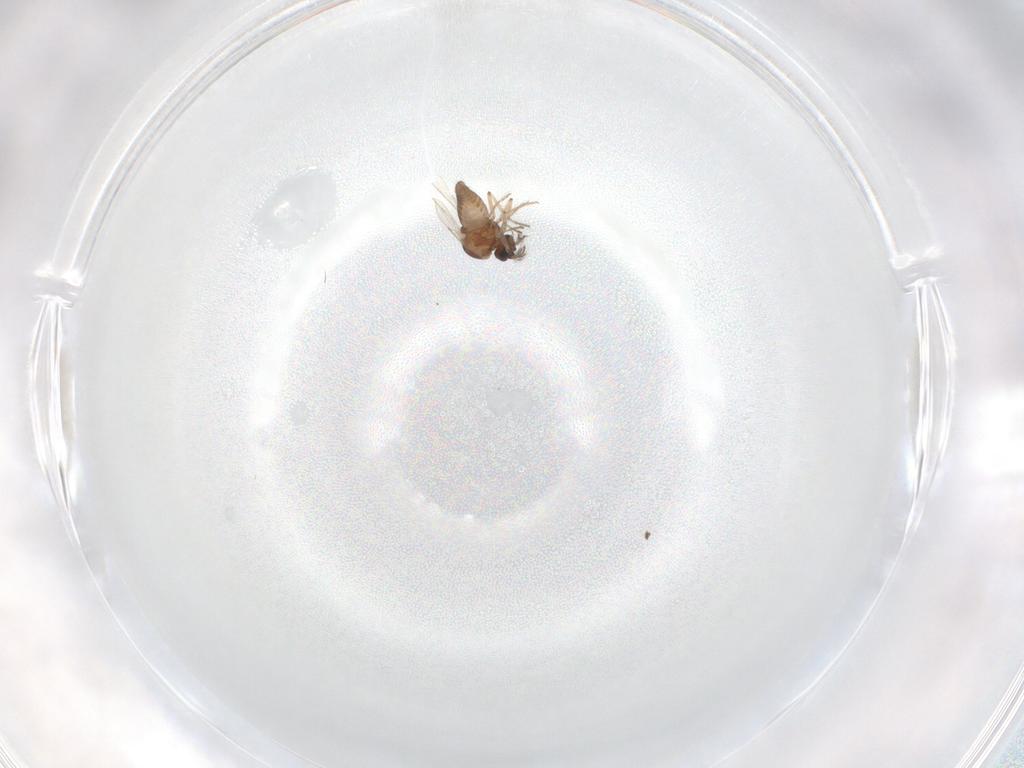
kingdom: Animalia
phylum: Arthropoda
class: Insecta
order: Diptera
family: Ceratopogonidae
